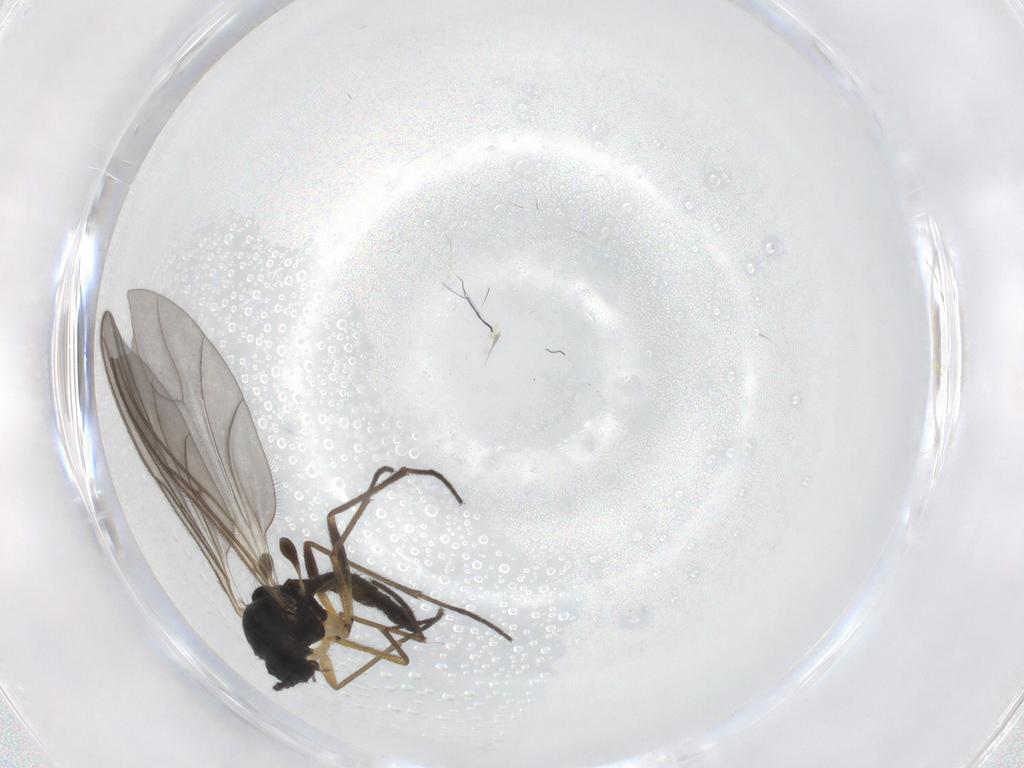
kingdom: Animalia
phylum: Arthropoda
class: Insecta
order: Diptera
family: Sciaridae
